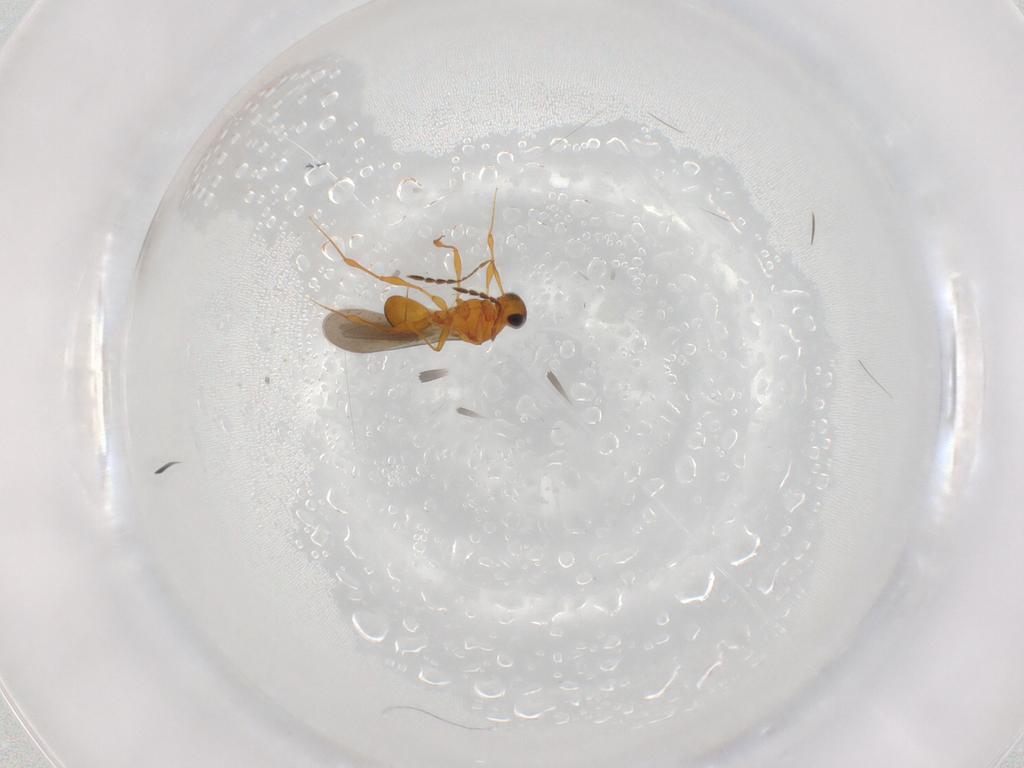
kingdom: Animalia
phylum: Arthropoda
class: Insecta
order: Hymenoptera
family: Platygastridae
